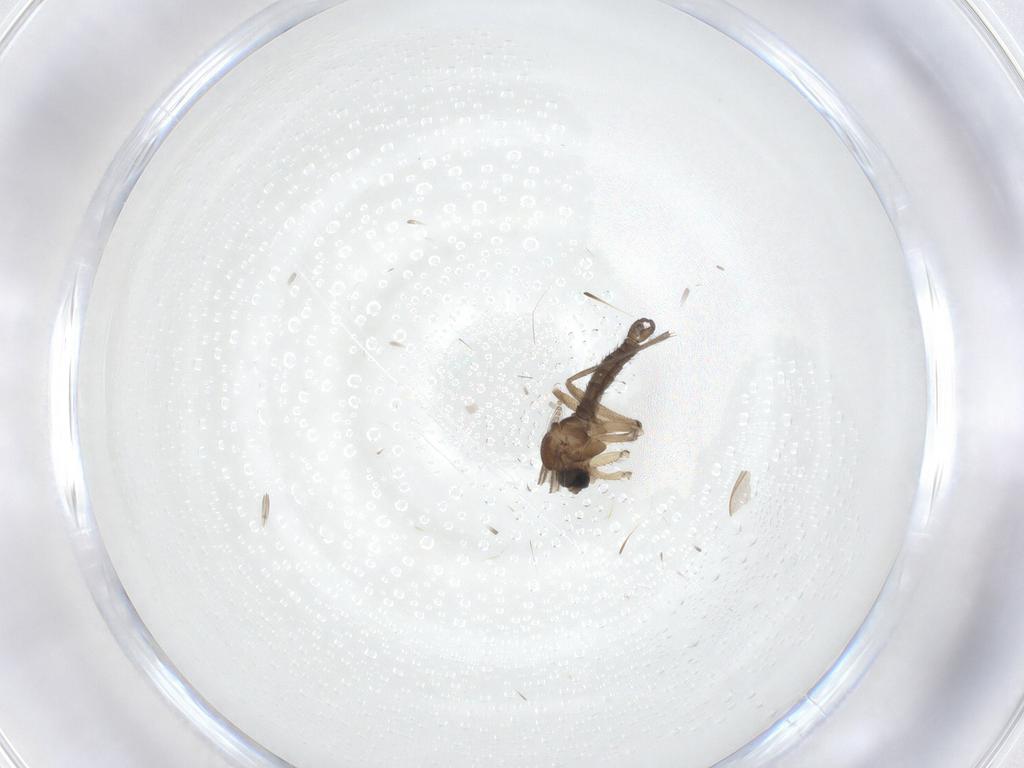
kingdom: Animalia
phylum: Arthropoda
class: Insecta
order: Diptera
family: Sciaridae
